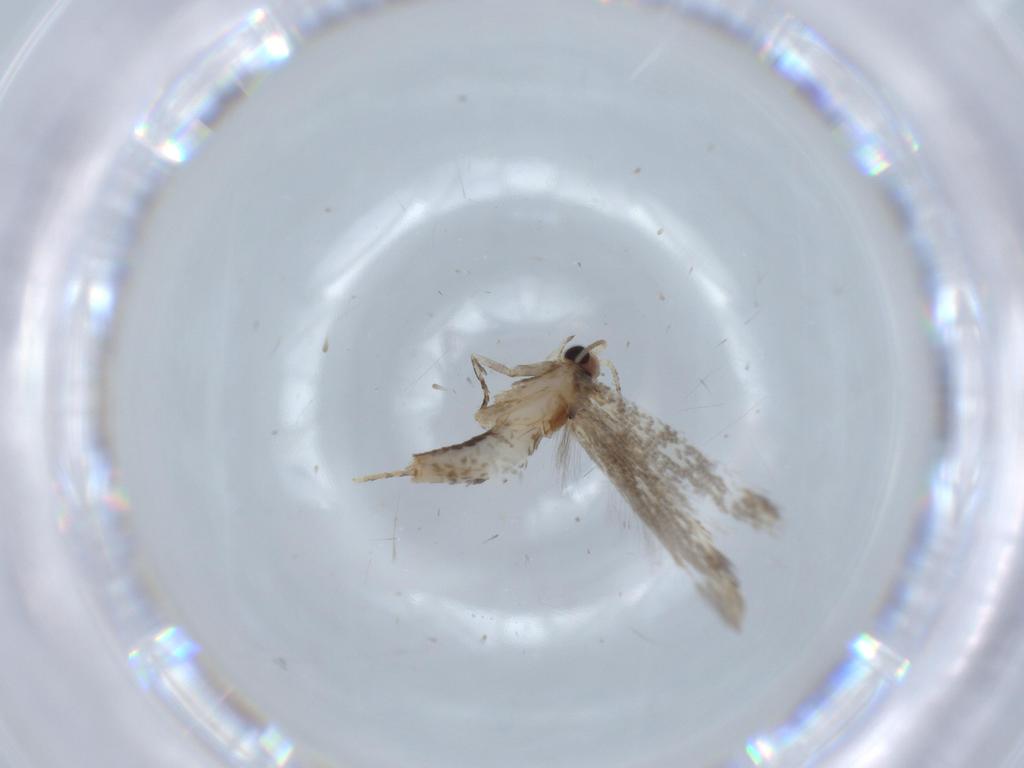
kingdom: Animalia
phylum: Arthropoda
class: Insecta
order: Lepidoptera
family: Tineidae
